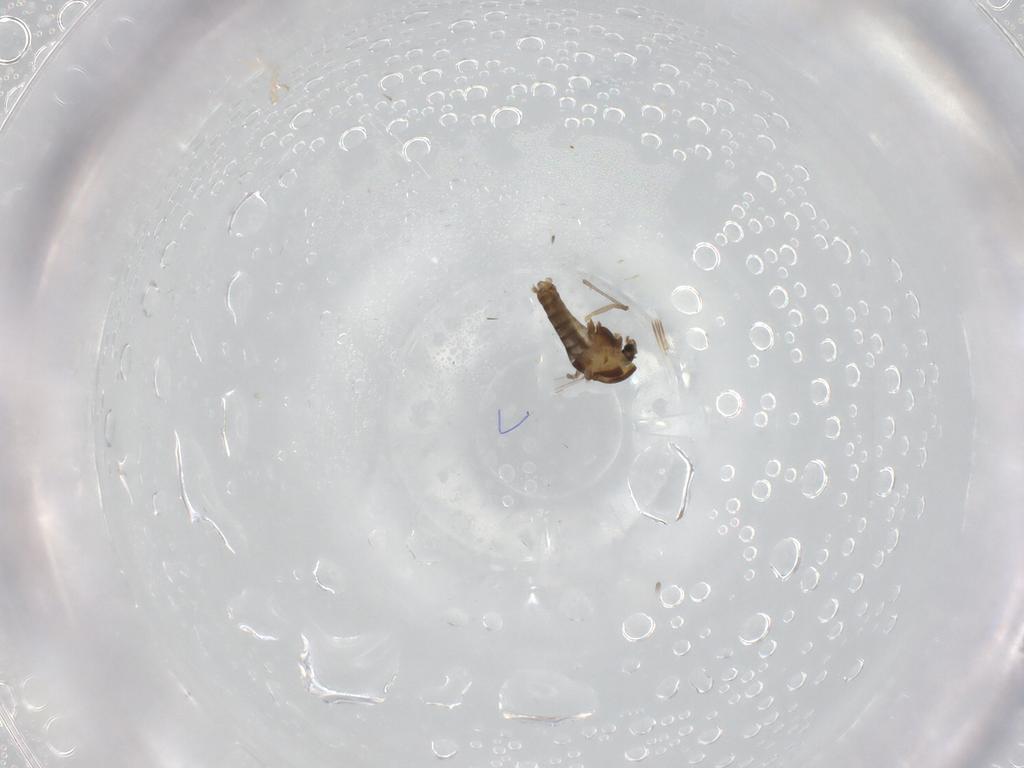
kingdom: Animalia
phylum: Arthropoda
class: Insecta
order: Diptera
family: Chironomidae
